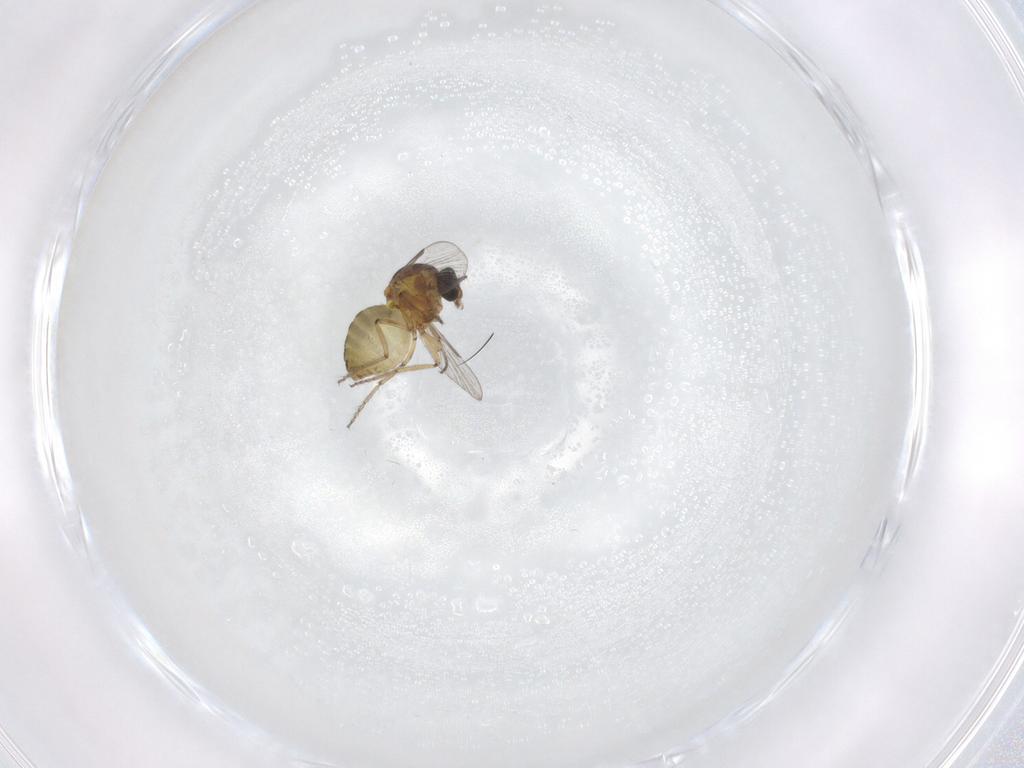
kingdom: Animalia
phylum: Arthropoda
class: Insecta
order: Diptera
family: Ceratopogonidae
